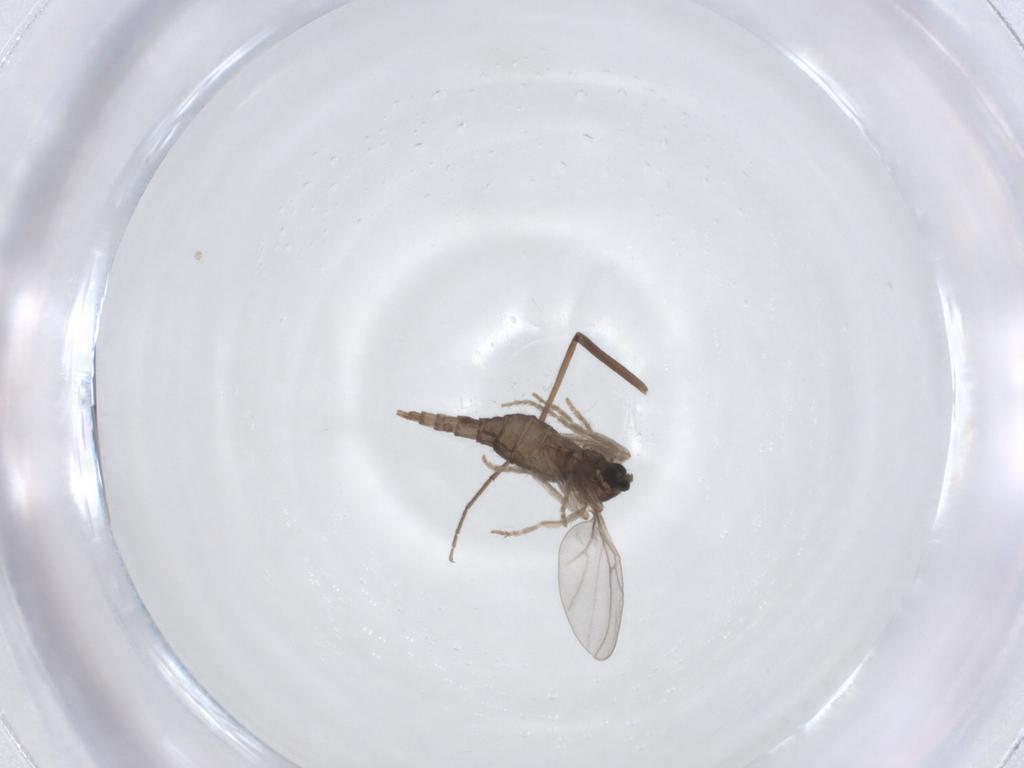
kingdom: Animalia
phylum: Arthropoda
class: Insecta
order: Diptera
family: Cecidomyiidae
